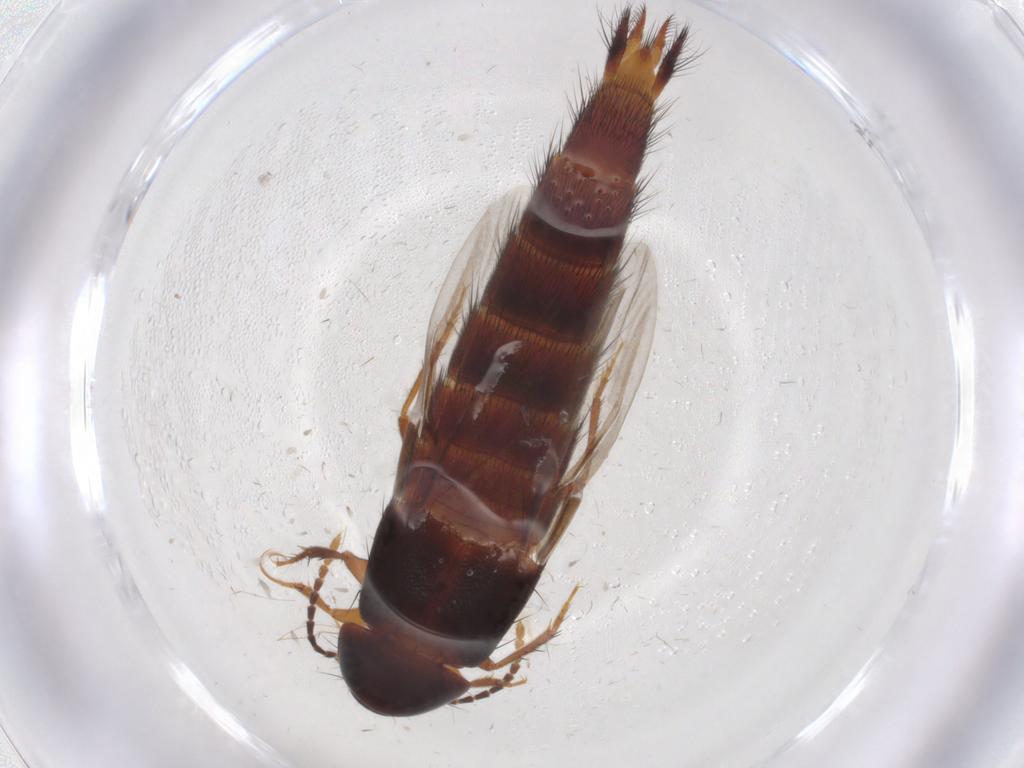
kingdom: Animalia
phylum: Arthropoda
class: Insecta
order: Coleoptera
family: Staphylinidae
